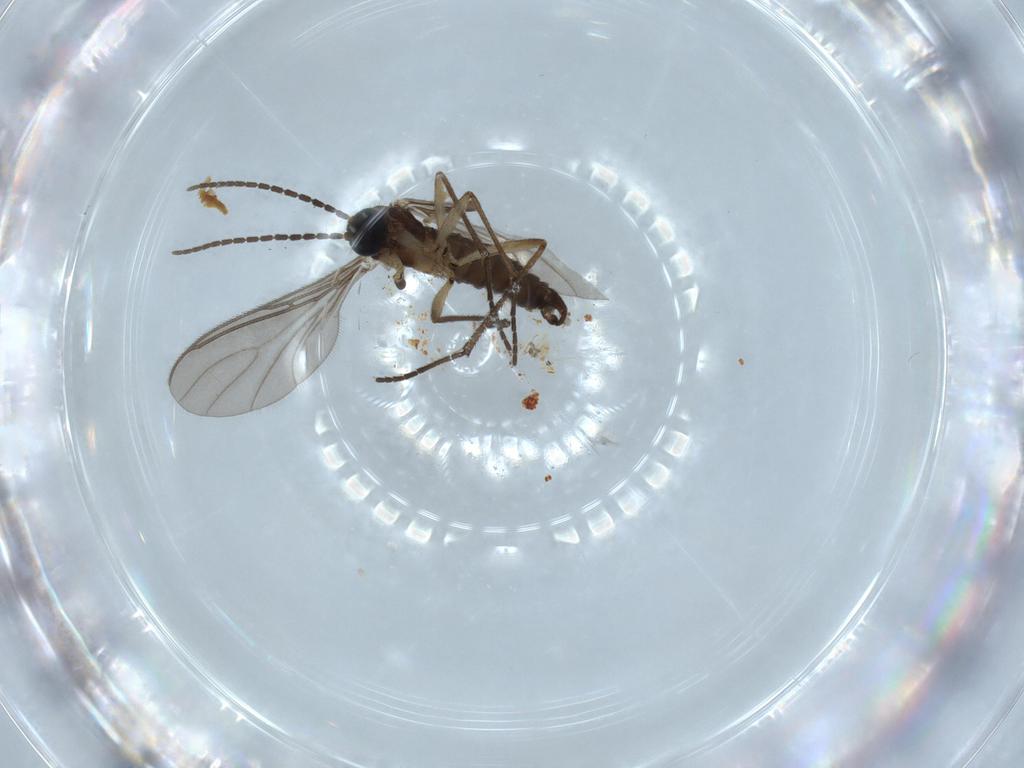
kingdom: Animalia
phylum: Arthropoda
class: Insecta
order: Diptera
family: Sciaridae
